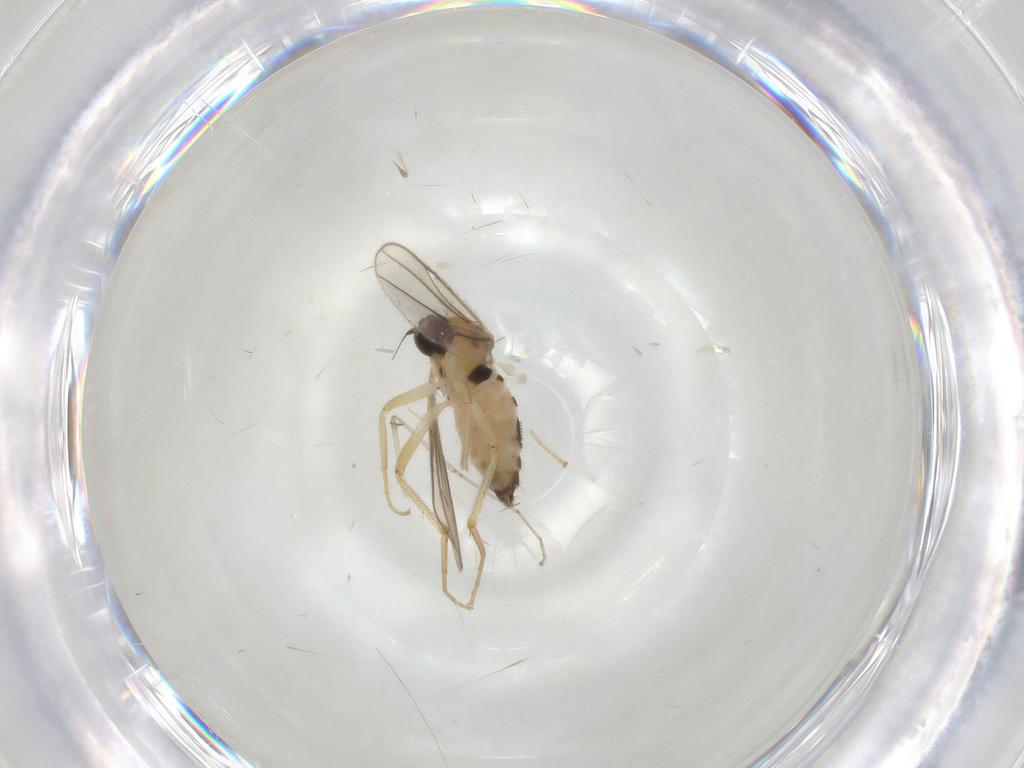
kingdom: Animalia
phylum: Arthropoda
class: Insecta
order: Diptera
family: Hybotidae
